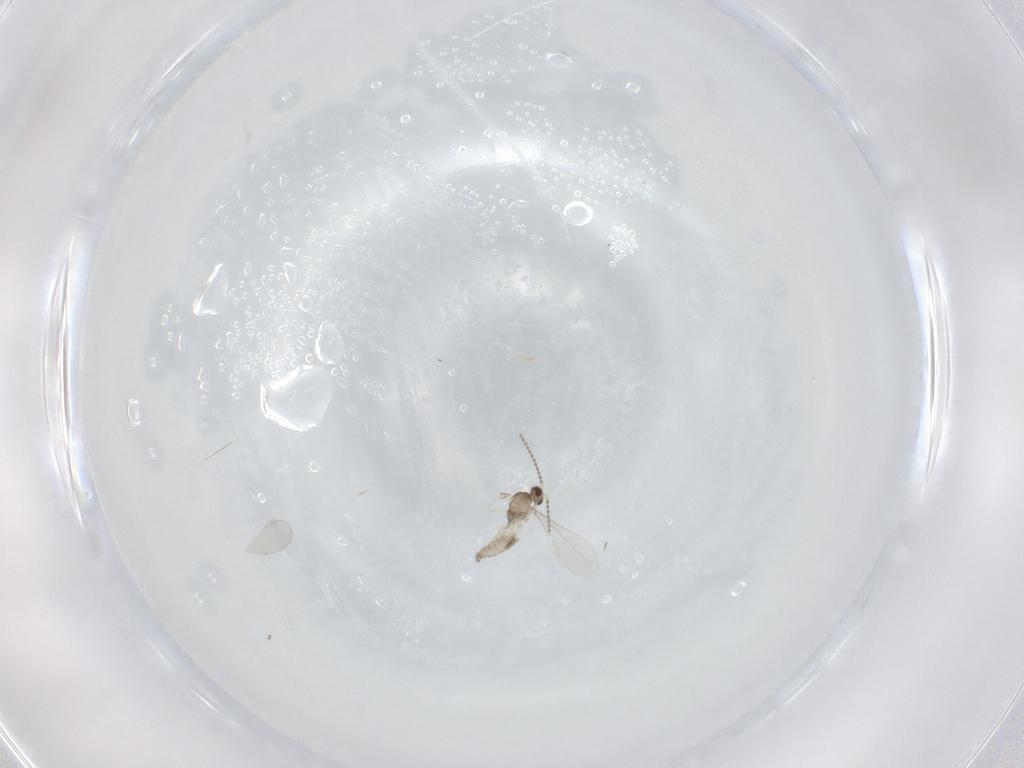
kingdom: Animalia
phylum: Arthropoda
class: Insecta
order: Diptera
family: Cecidomyiidae
